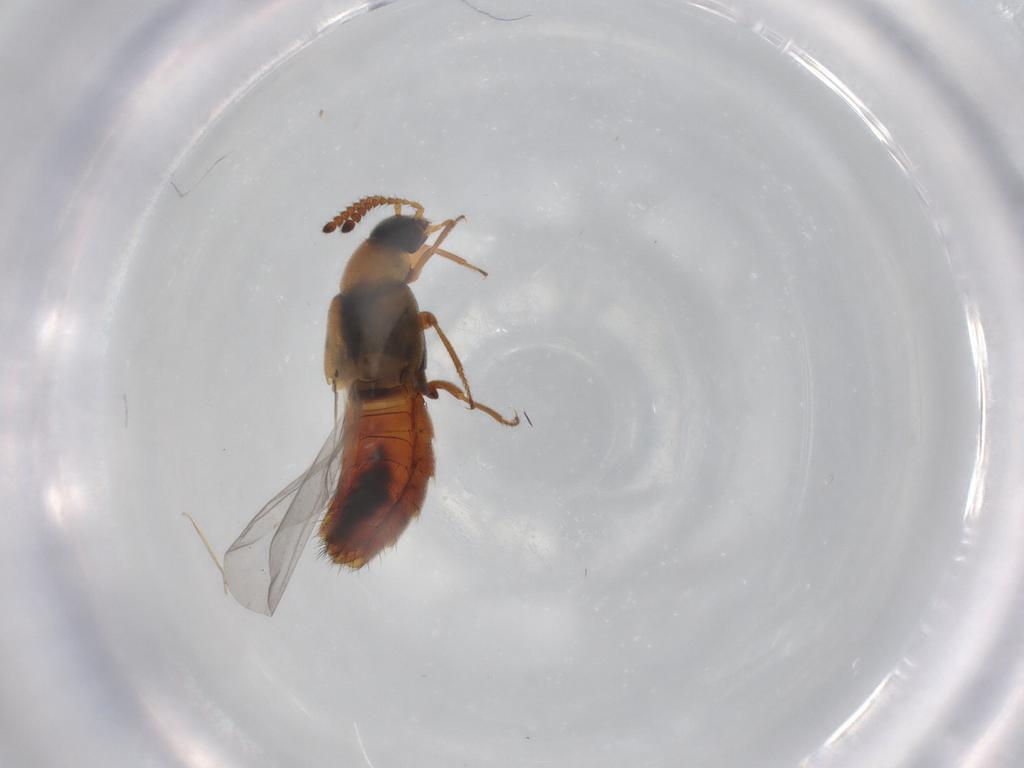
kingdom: Animalia
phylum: Arthropoda
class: Insecta
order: Coleoptera
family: Staphylinidae
